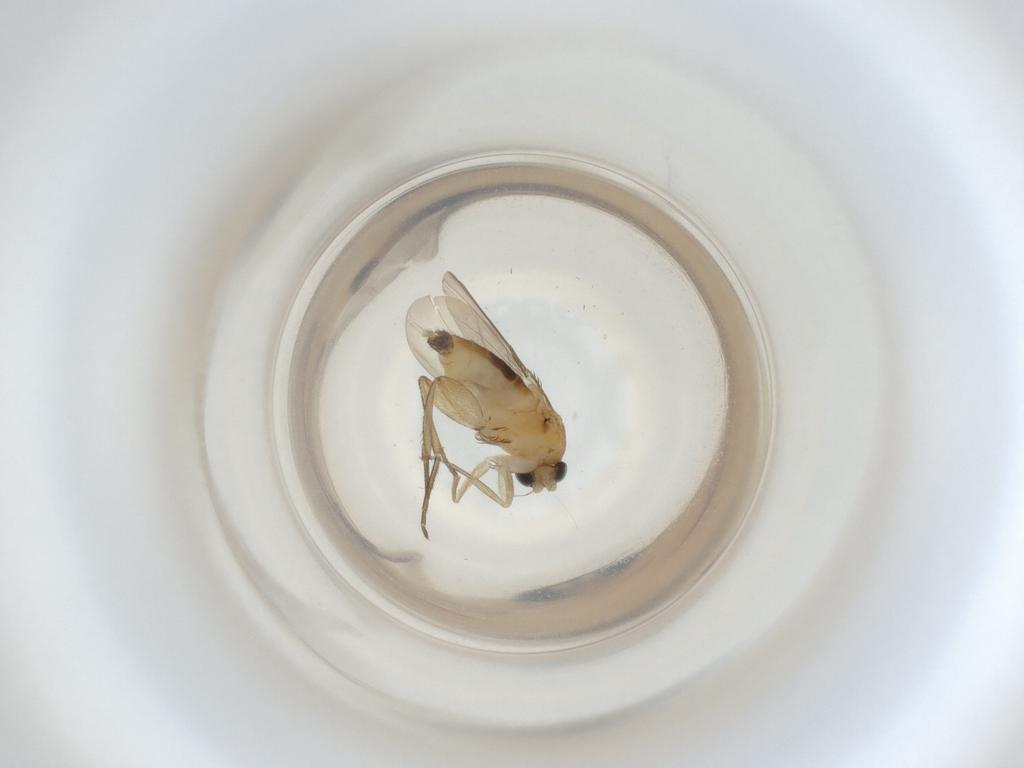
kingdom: Animalia
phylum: Arthropoda
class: Insecta
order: Diptera
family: Phoridae
